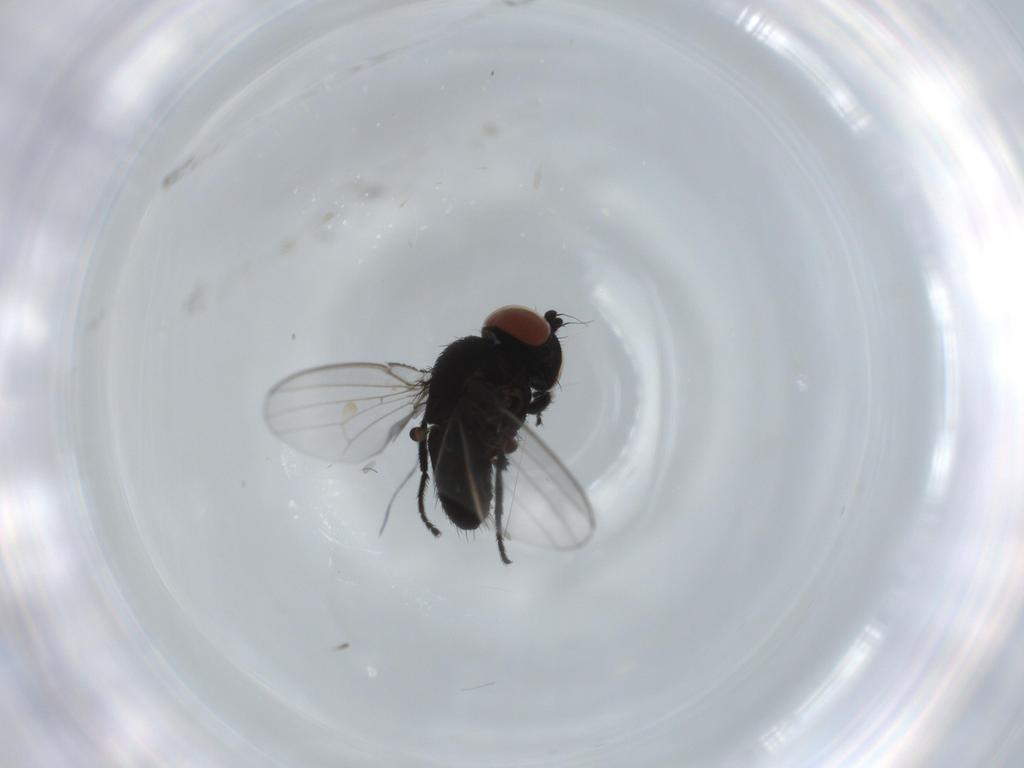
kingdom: Animalia
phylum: Arthropoda
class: Insecta
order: Diptera
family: Milichiidae
